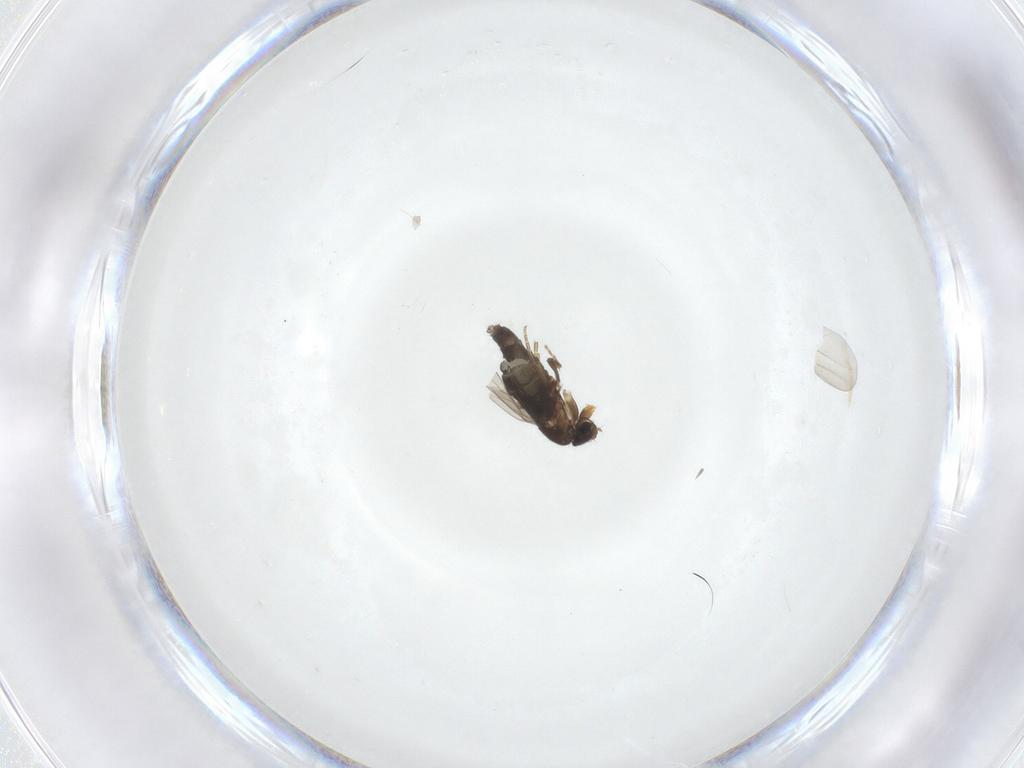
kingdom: Animalia
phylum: Arthropoda
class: Insecta
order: Diptera
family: Phoridae
